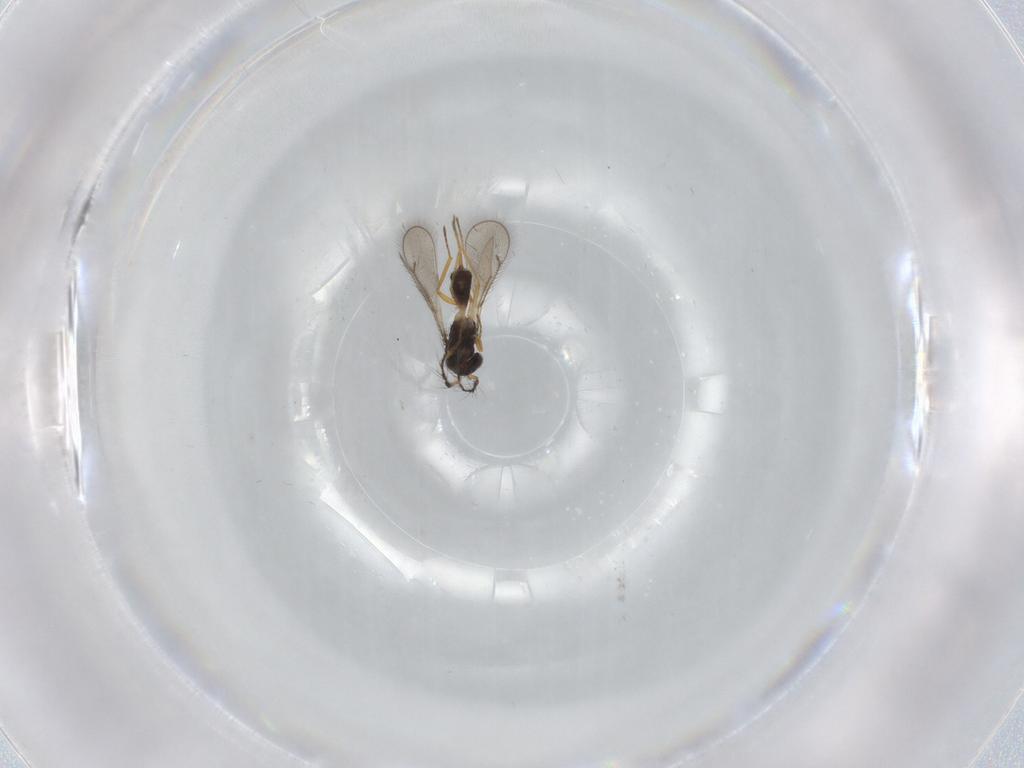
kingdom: Animalia
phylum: Arthropoda
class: Insecta
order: Hymenoptera
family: Eulophidae
